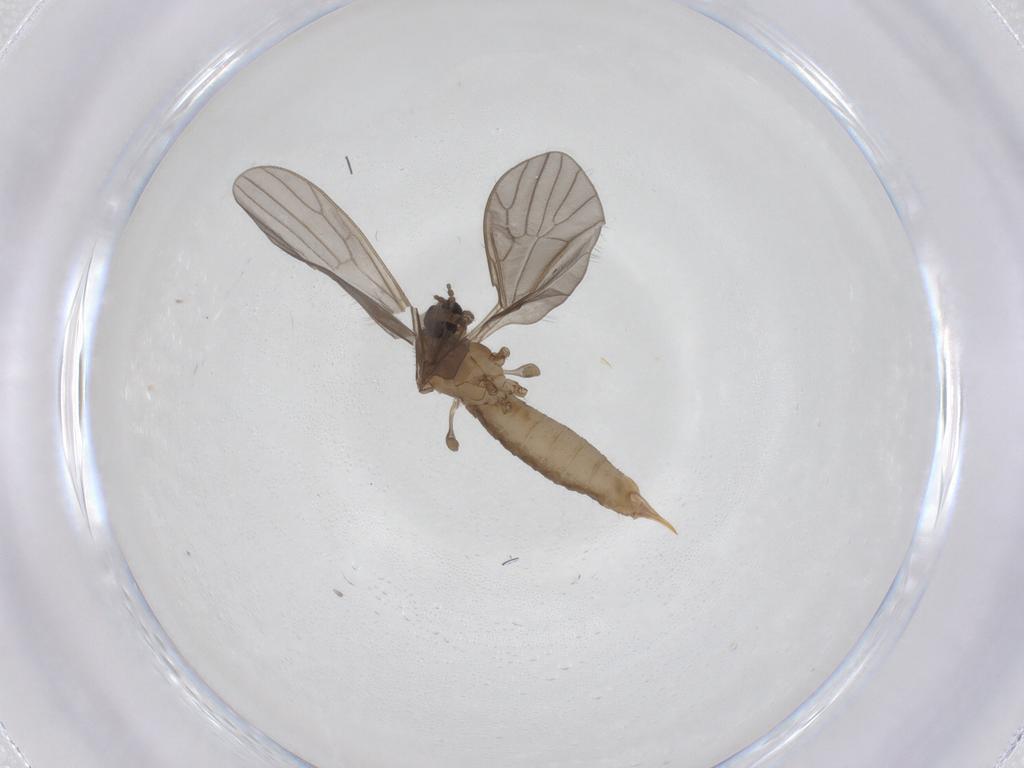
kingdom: Animalia
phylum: Arthropoda
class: Insecta
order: Diptera
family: Limoniidae
